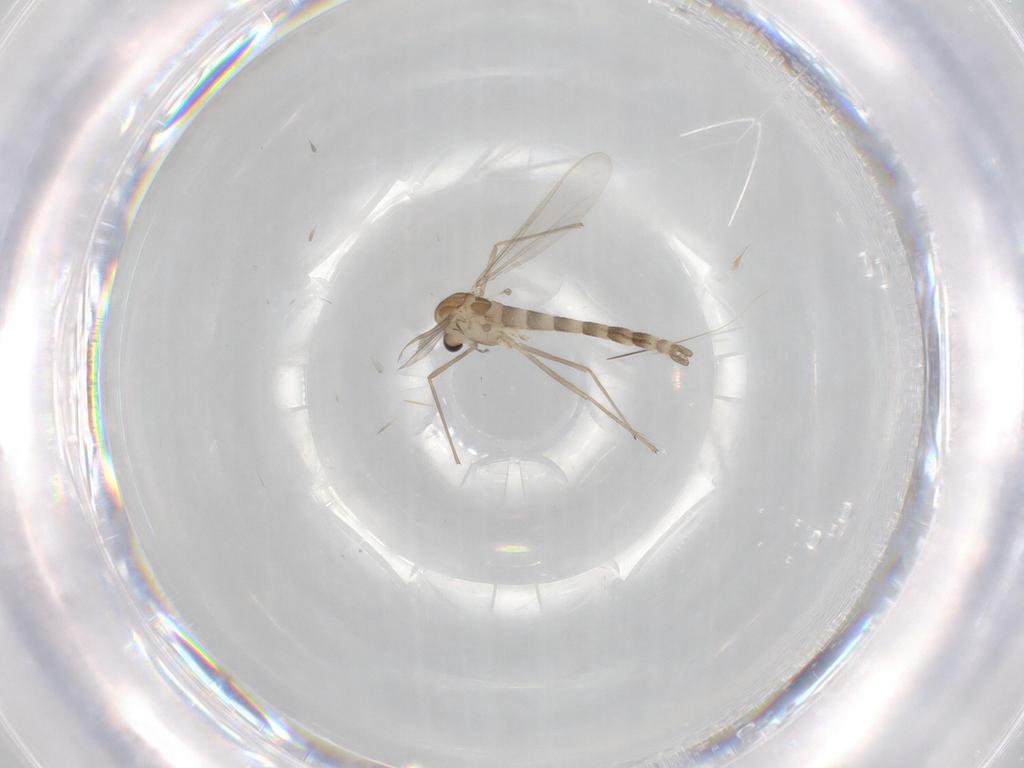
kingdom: Animalia
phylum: Arthropoda
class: Insecta
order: Diptera
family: Chironomidae
